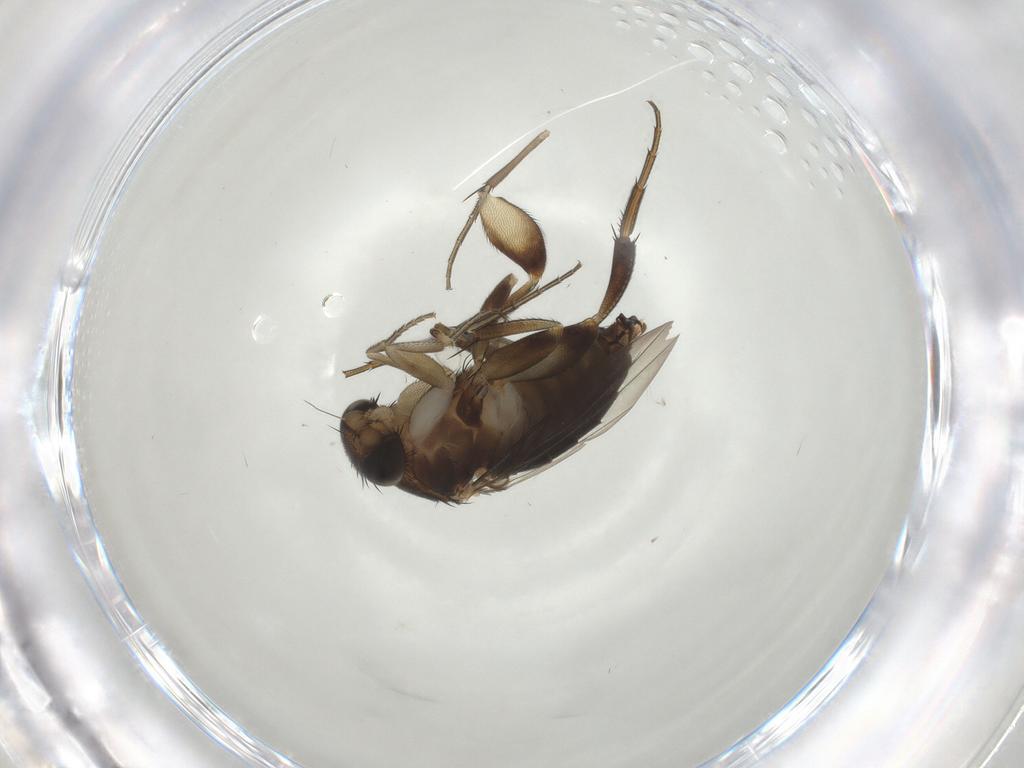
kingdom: Animalia
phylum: Arthropoda
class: Insecta
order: Diptera
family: Phoridae
